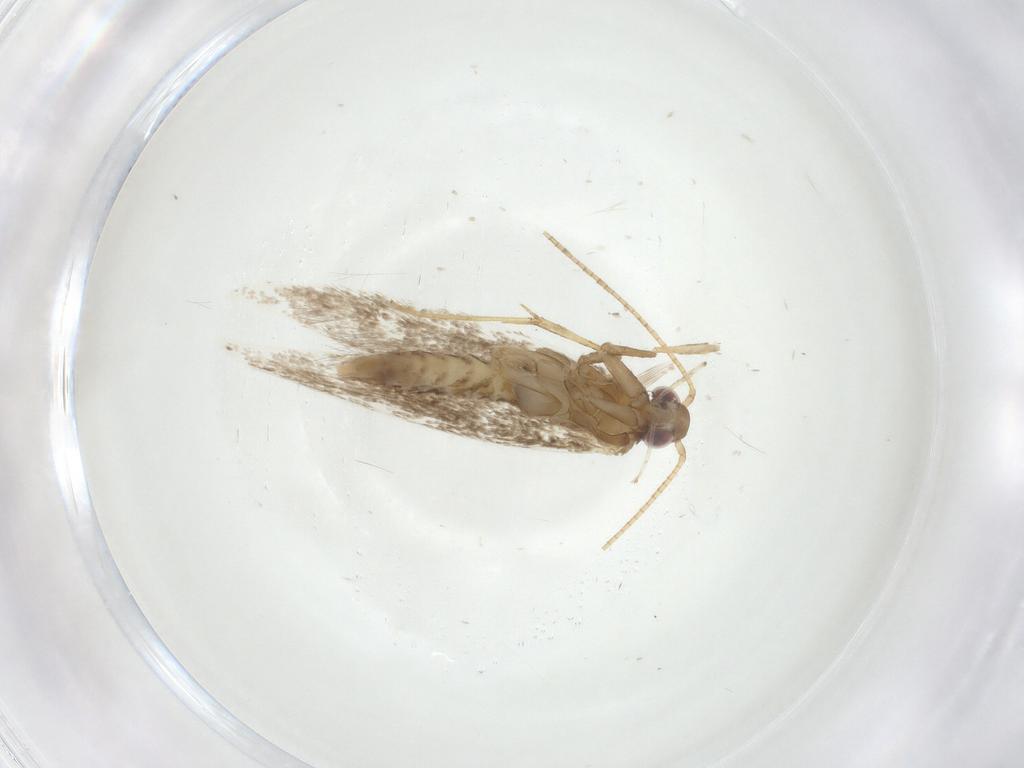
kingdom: Animalia
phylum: Arthropoda
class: Insecta
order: Lepidoptera
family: Gracillariidae
